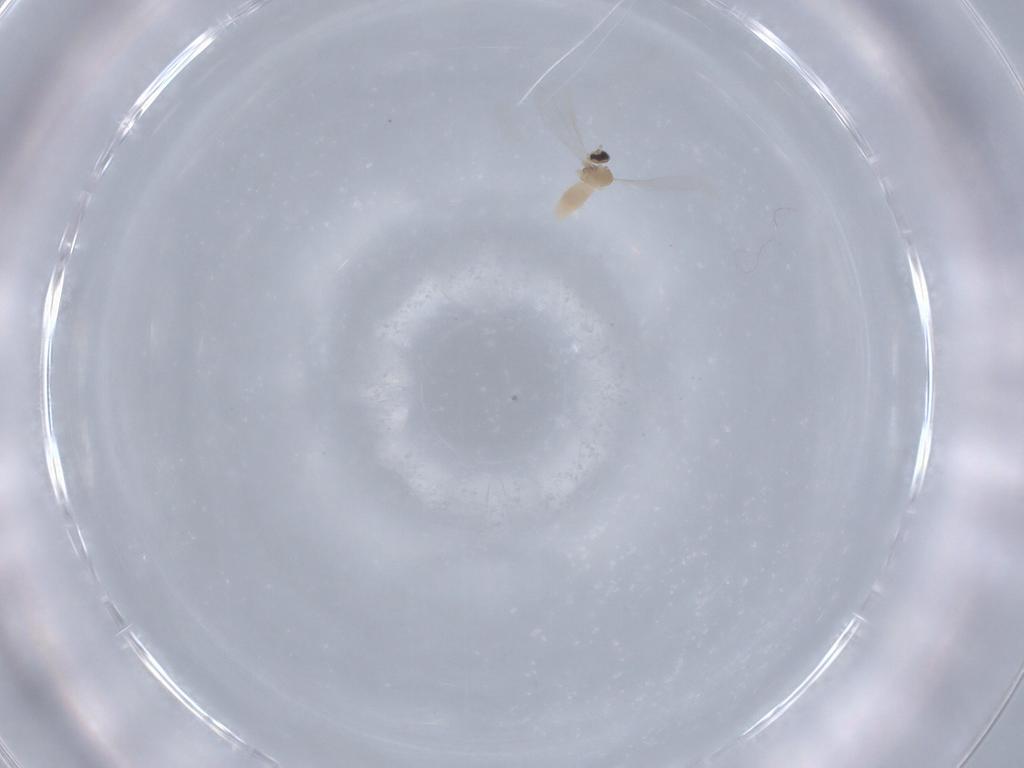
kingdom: Animalia
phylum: Arthropoda
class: Insecta
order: Diptera
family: Cecidomyiidae
